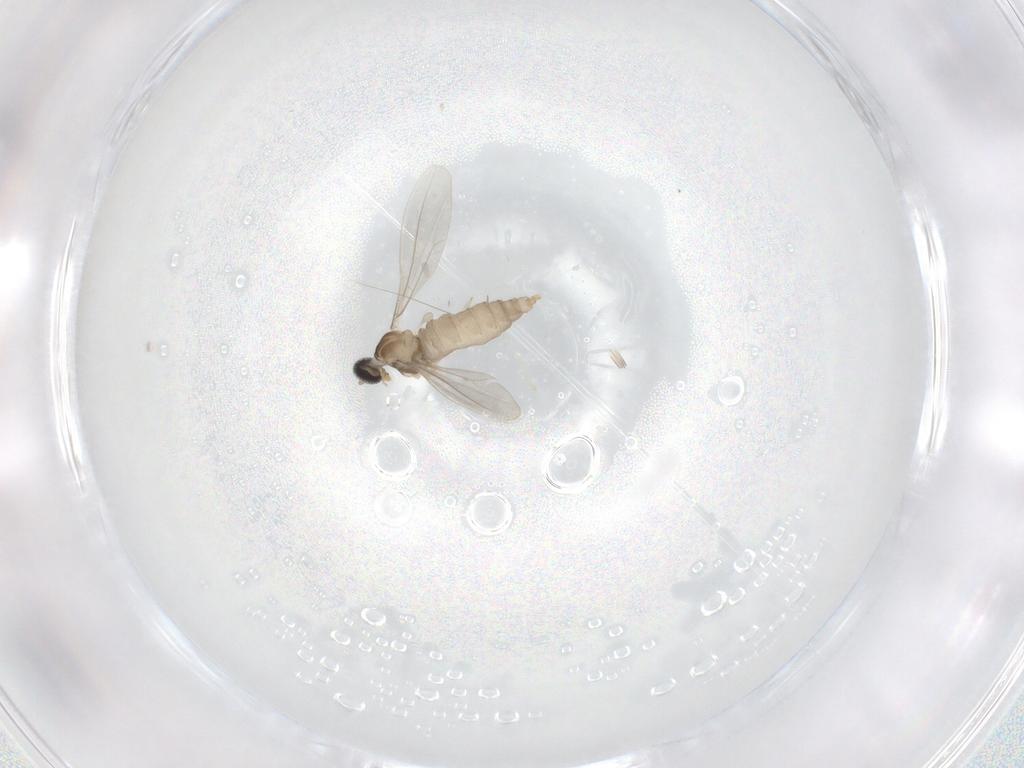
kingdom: Animalia
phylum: Arthropoda
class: Insecta
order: Diptera
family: Cecidomyiidae
